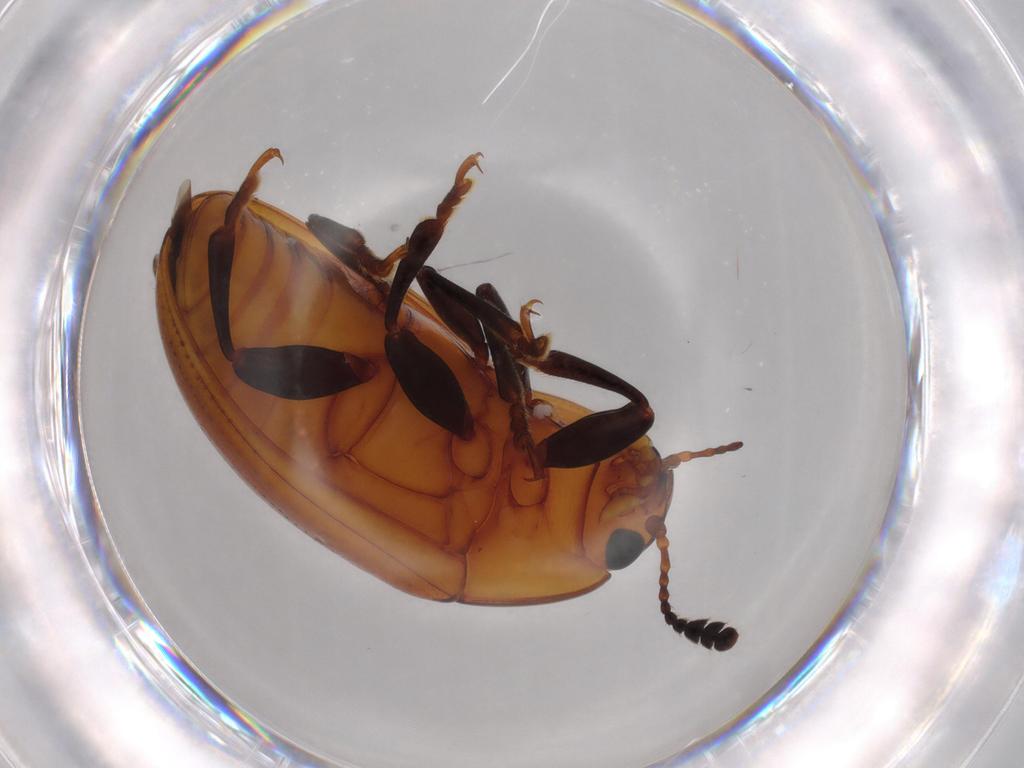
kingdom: Animalia
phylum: Arthropoda
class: Insecta
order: Coleoptera
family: Erotylidae
